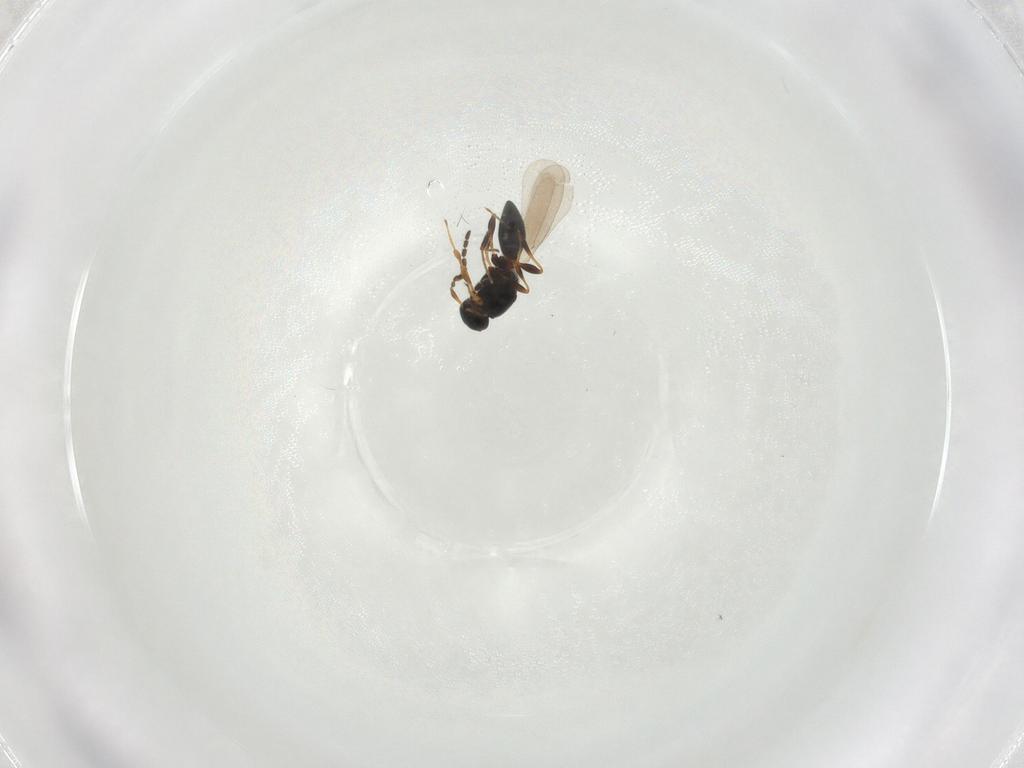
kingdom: Animalia
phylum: Arthropoda
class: Insecta
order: Hymenoptera
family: Platygastridae
